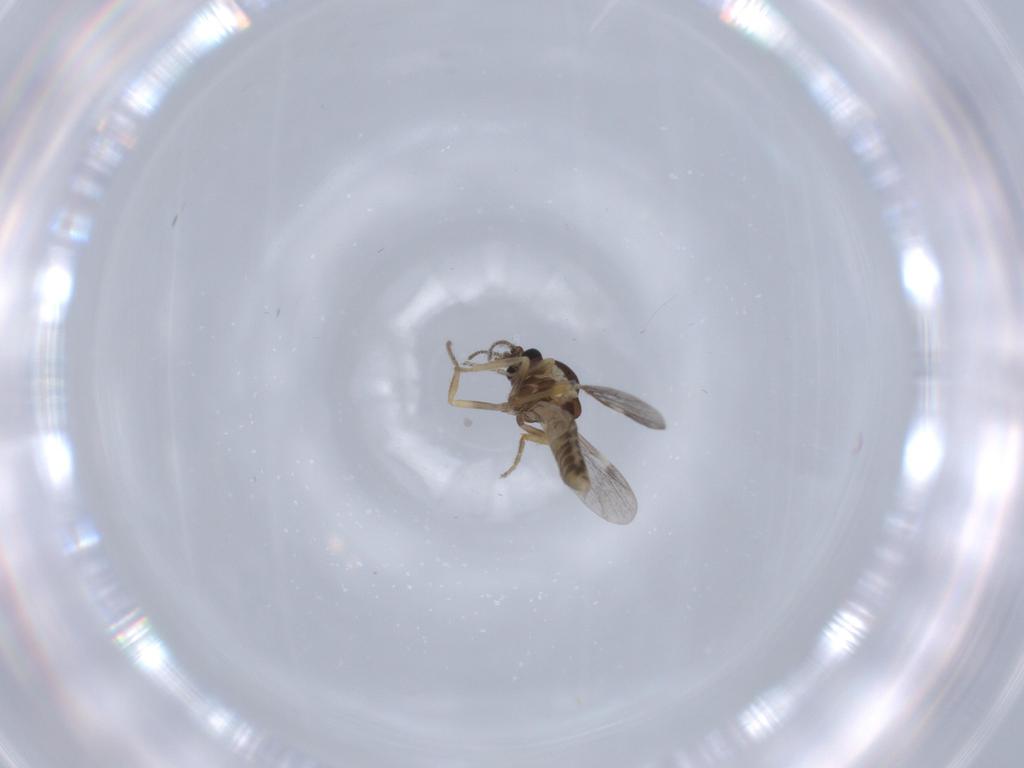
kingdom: Animalia
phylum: Arthropoda
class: Insecta
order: Diptera
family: Ceratopogonidae
